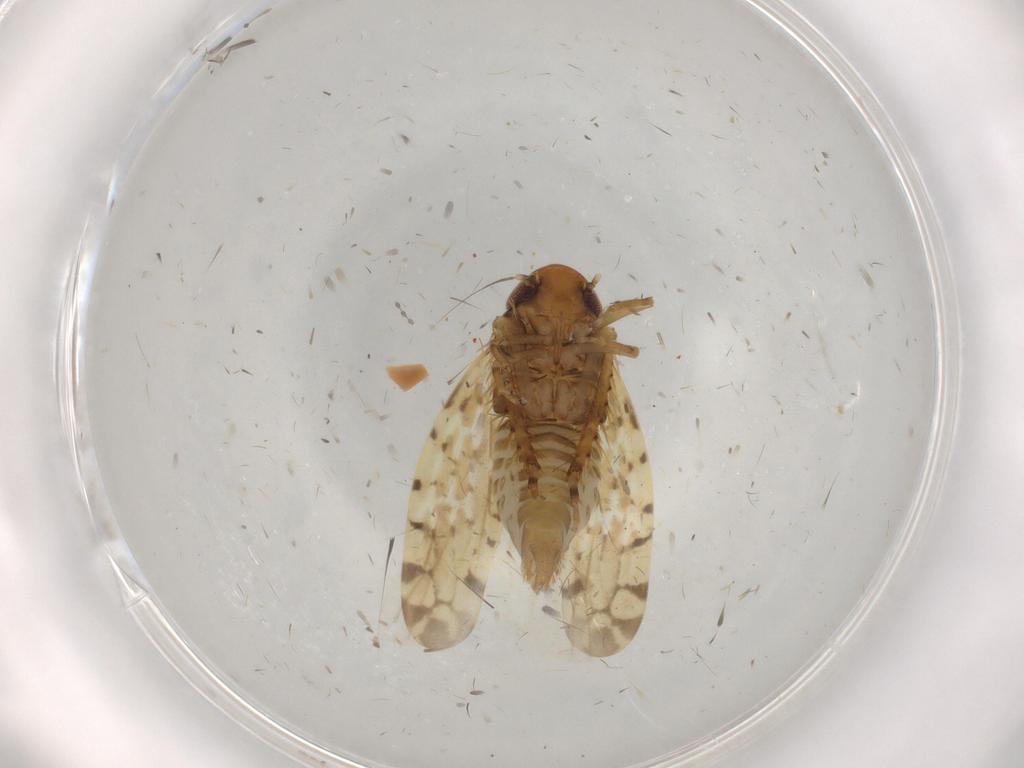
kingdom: Animalia
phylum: Arthropoda
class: Insecta
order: Hemiptera
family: Cicadellidae
